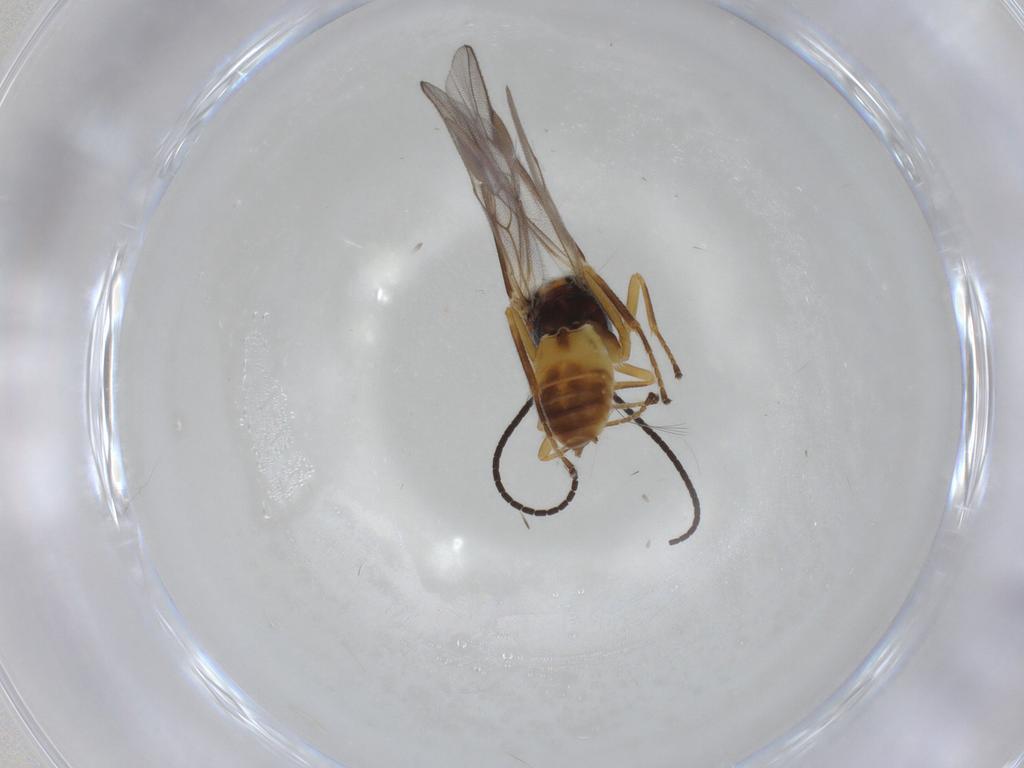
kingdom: Animalia
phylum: Arthropoda
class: Insecta
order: Hymenoptera
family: Braconidae
